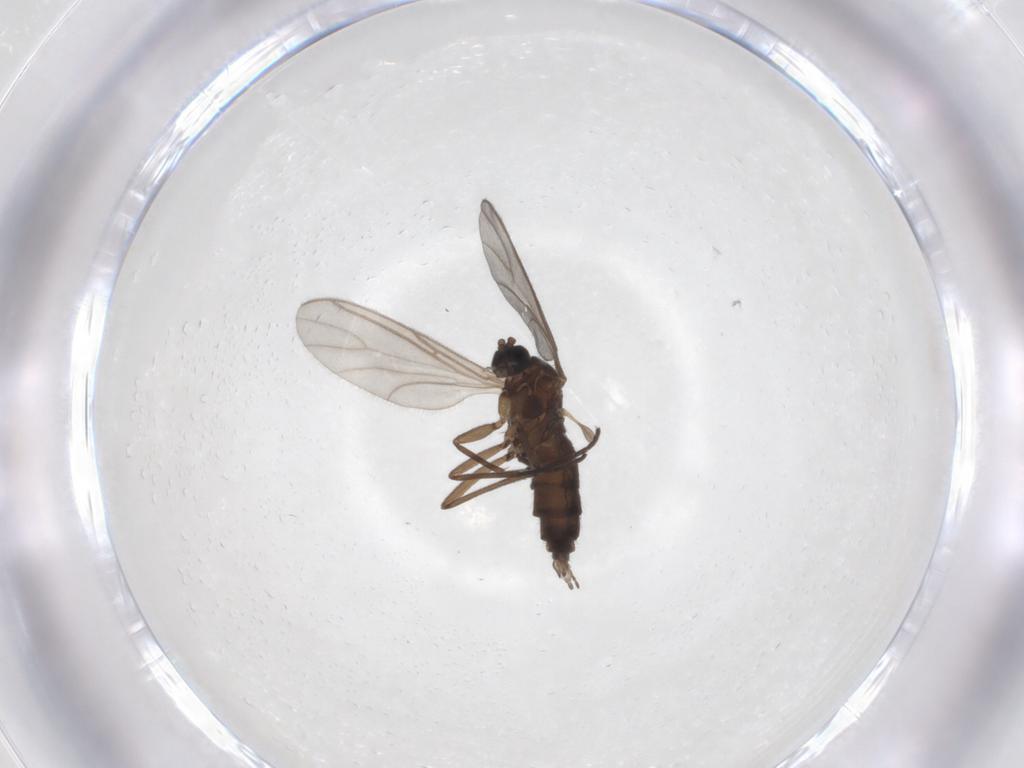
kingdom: Animalia
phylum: Arthropoda
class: Insecta
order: Diptera
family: Sciaridae
